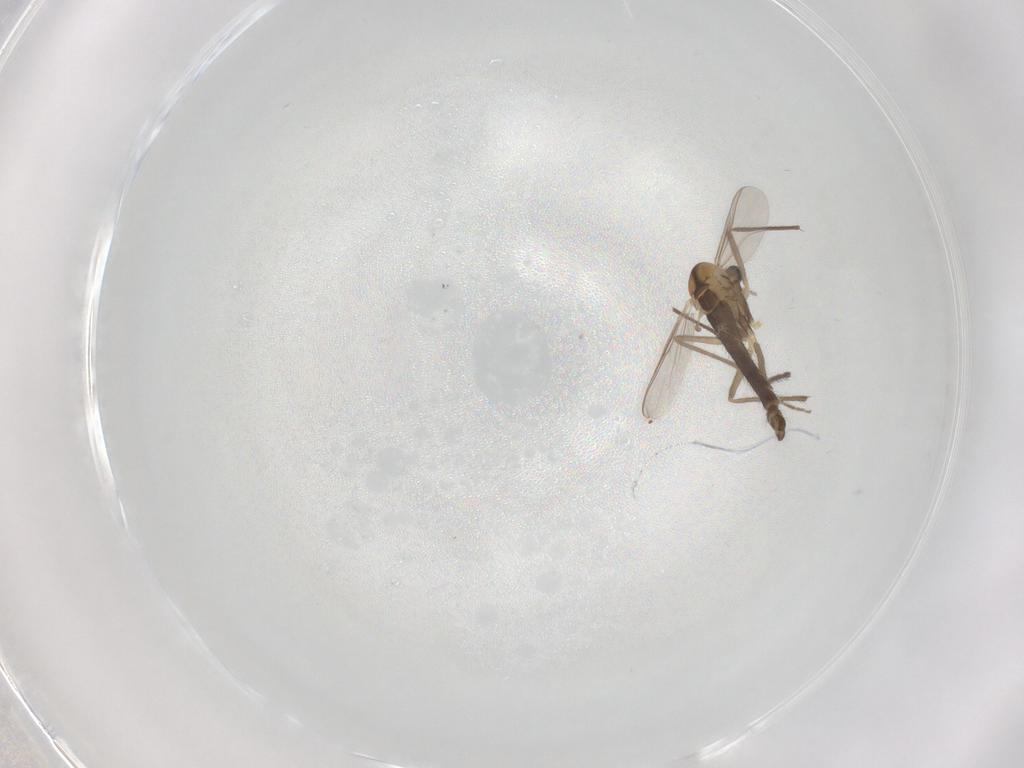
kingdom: Animalia
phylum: Arthropoda
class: Insecta
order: Diptera
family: Chironomidae
